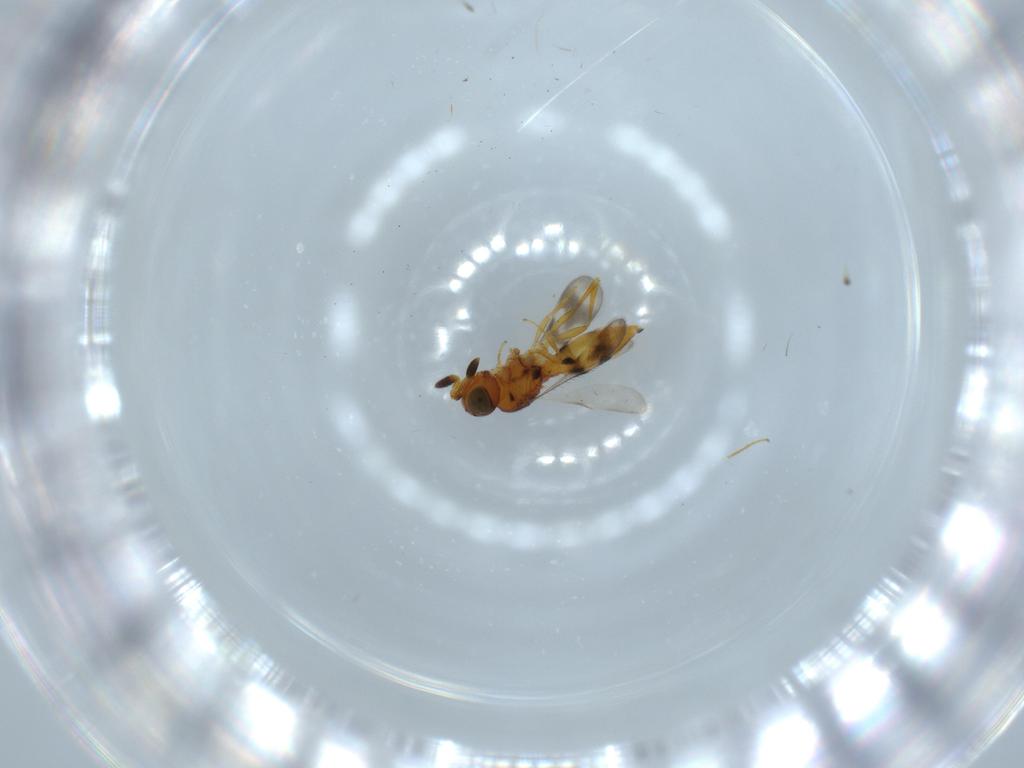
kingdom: Animalia
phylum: Arthropoda
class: Insecta
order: Hymenoptera
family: Scelionidae
